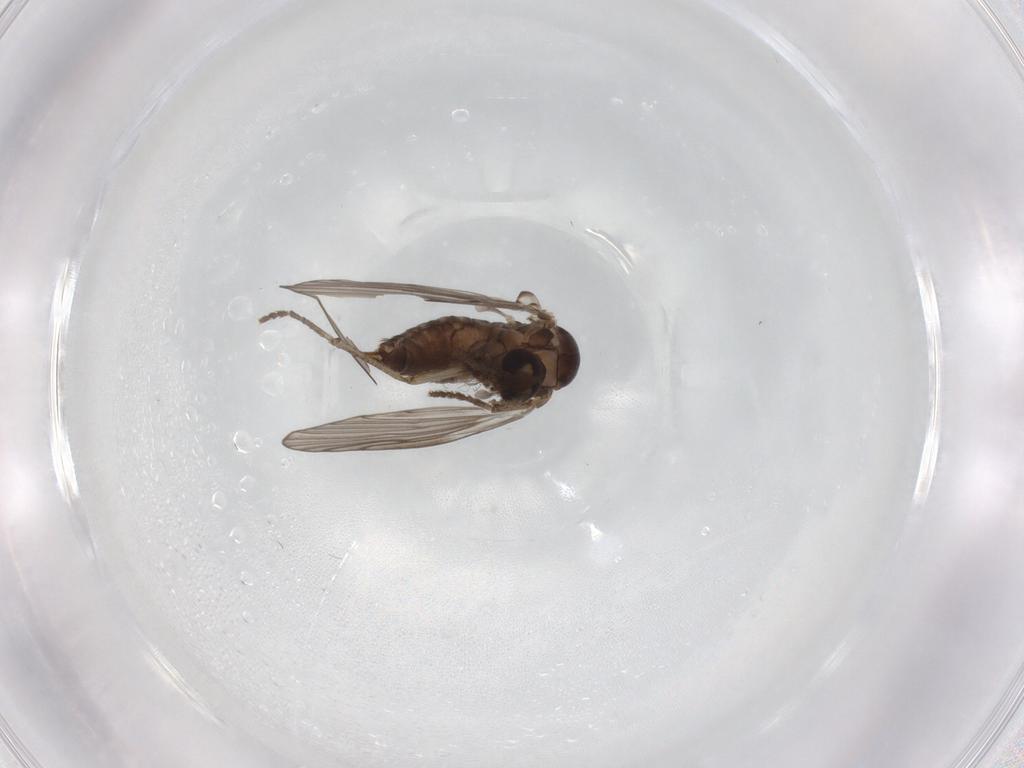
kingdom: Animalia
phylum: Arthropoda
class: Insecta
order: Diptera
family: Psychodidae
